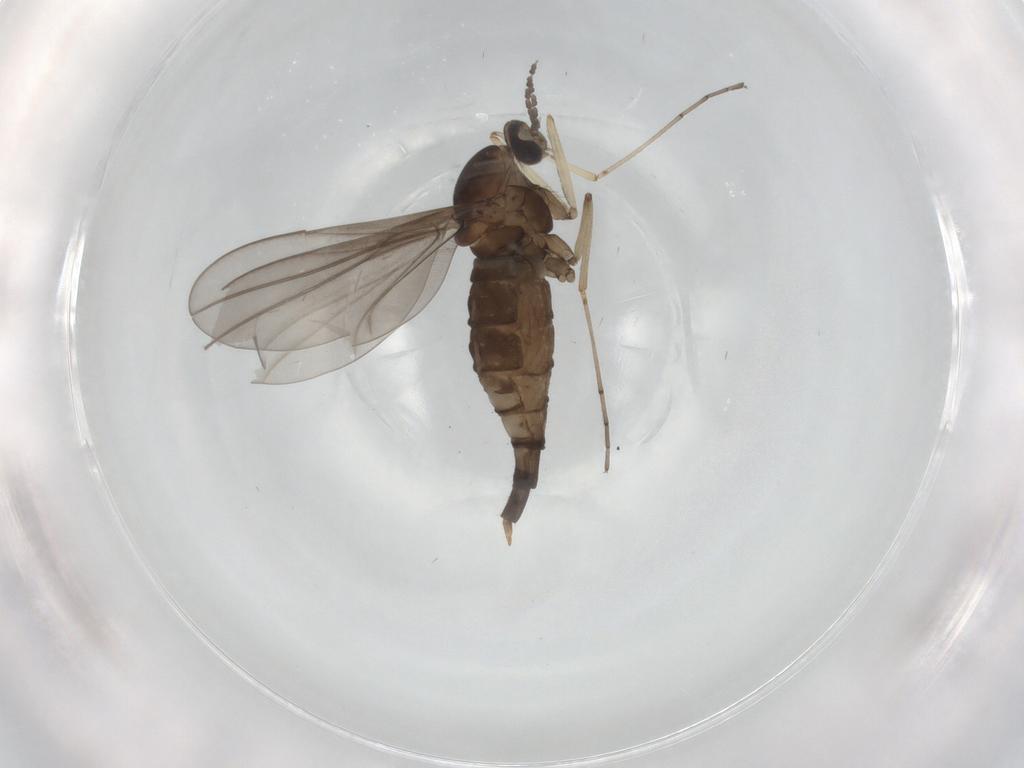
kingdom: Animalia
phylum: Arthropoda
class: Insecta
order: Diptera
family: Cecidomyiidae
